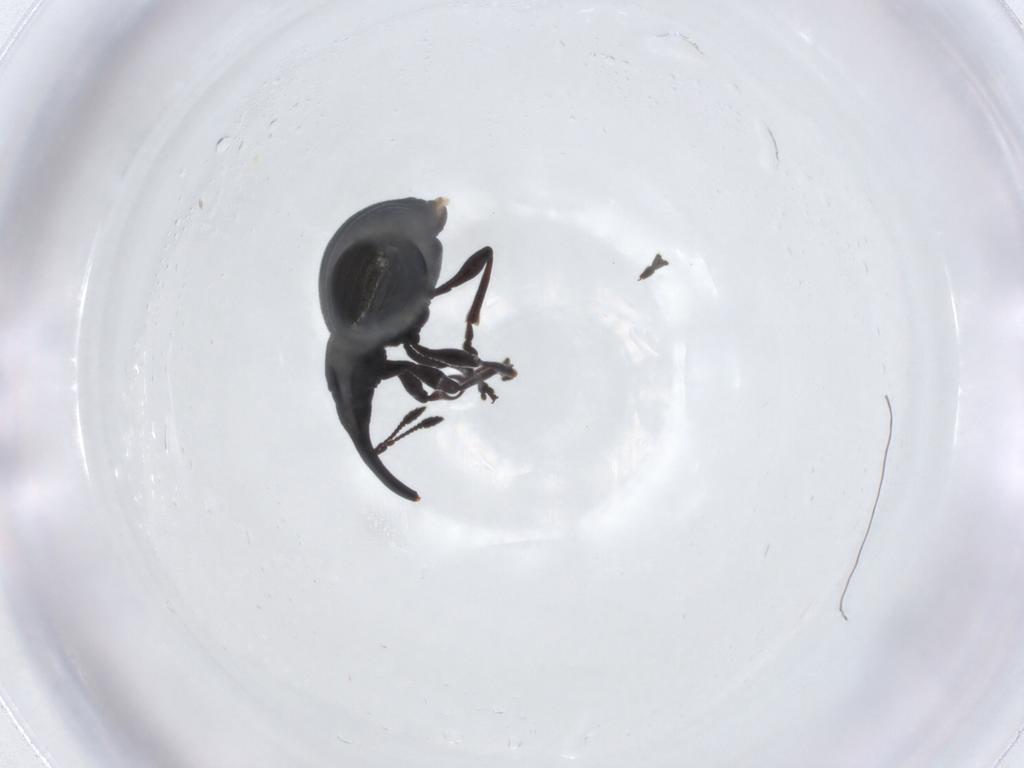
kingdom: Animalia
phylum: Arthropoda
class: Insecta
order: Coleoptera
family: Brentidae
